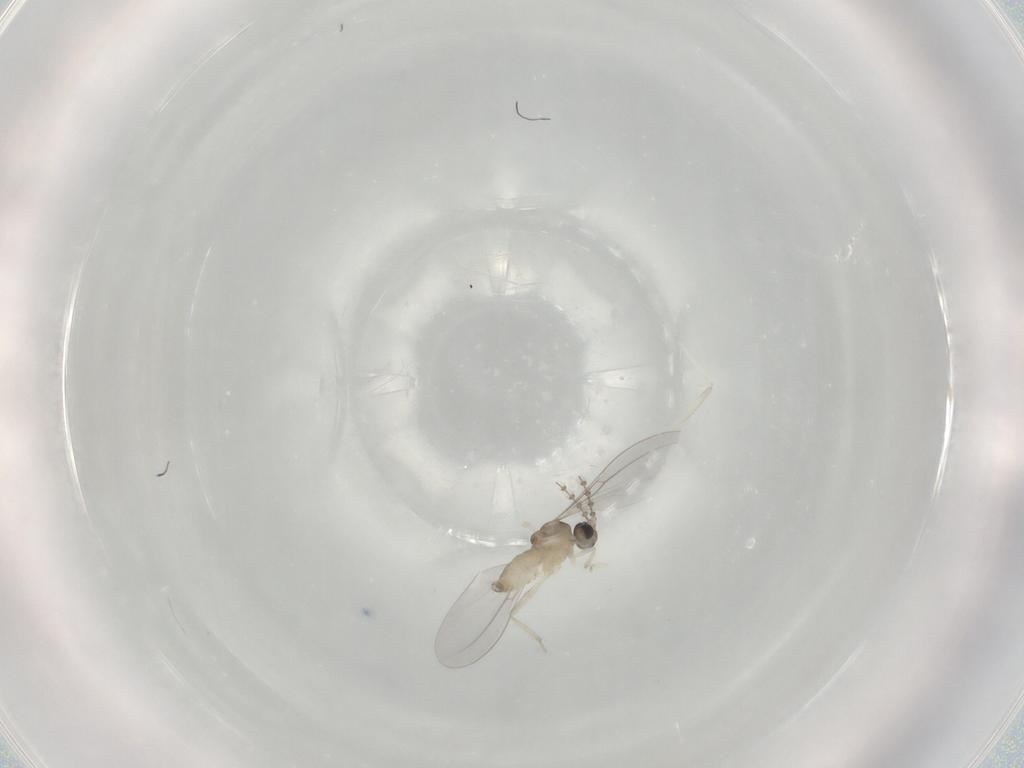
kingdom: Animalia
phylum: Arthropoda
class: Insecta
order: Diptera
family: Cecidomyiidae
